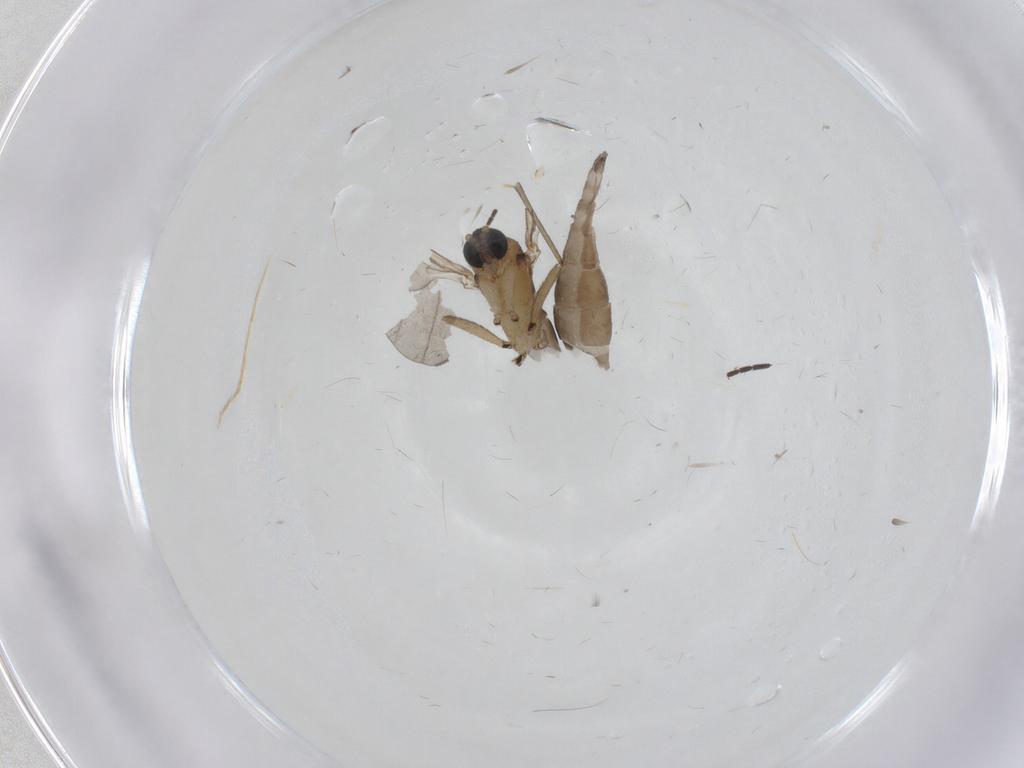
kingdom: Animalia
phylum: Arthropoda
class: Insecta
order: Diptera
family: Sciaridae
